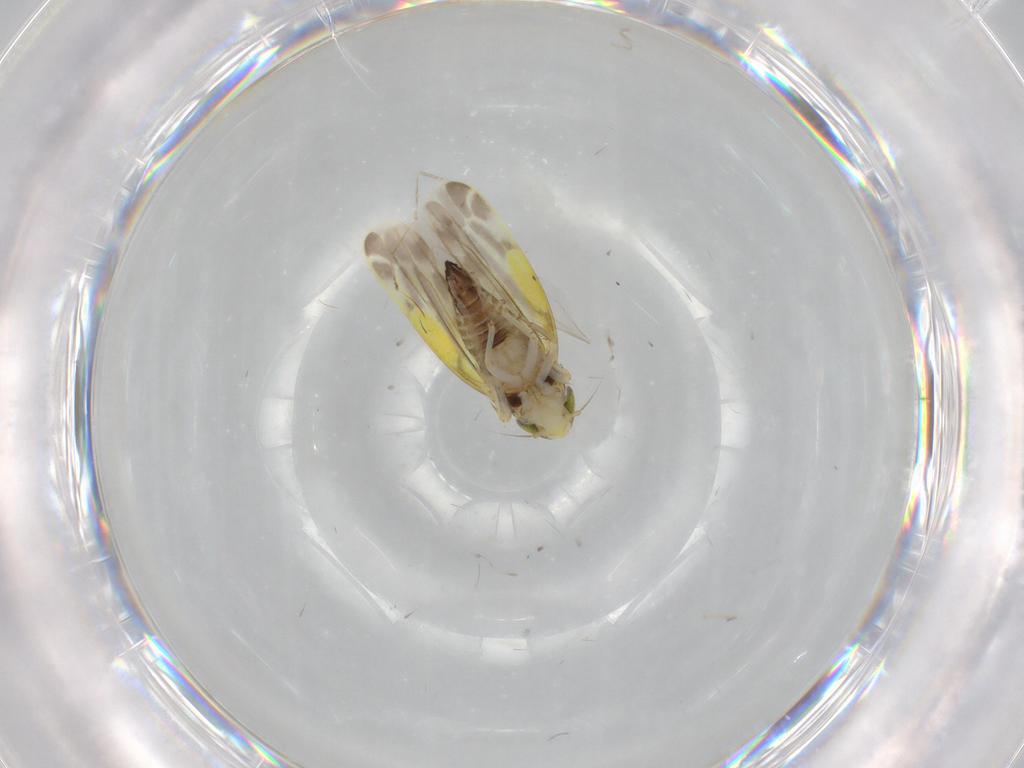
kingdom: Animalia
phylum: Arthropoda
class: Insecta
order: Hemiptera
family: Cicadellidae
